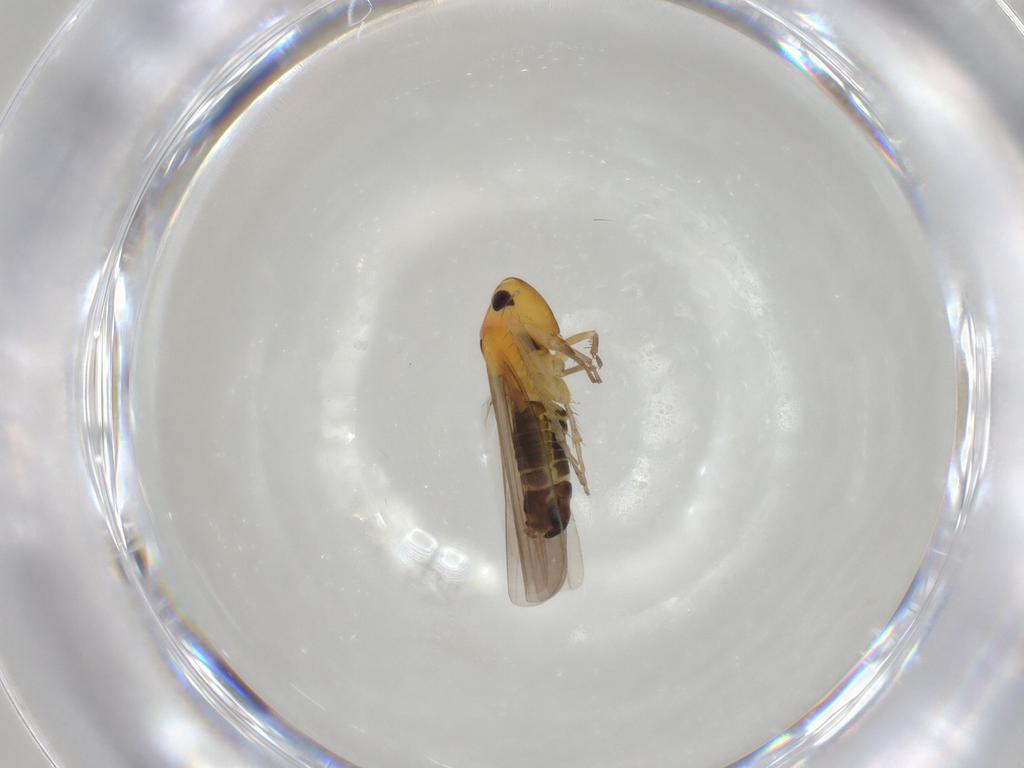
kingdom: Animalia
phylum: Arthropoda
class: Insecta
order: Hemiptera
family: Cicadellidae
